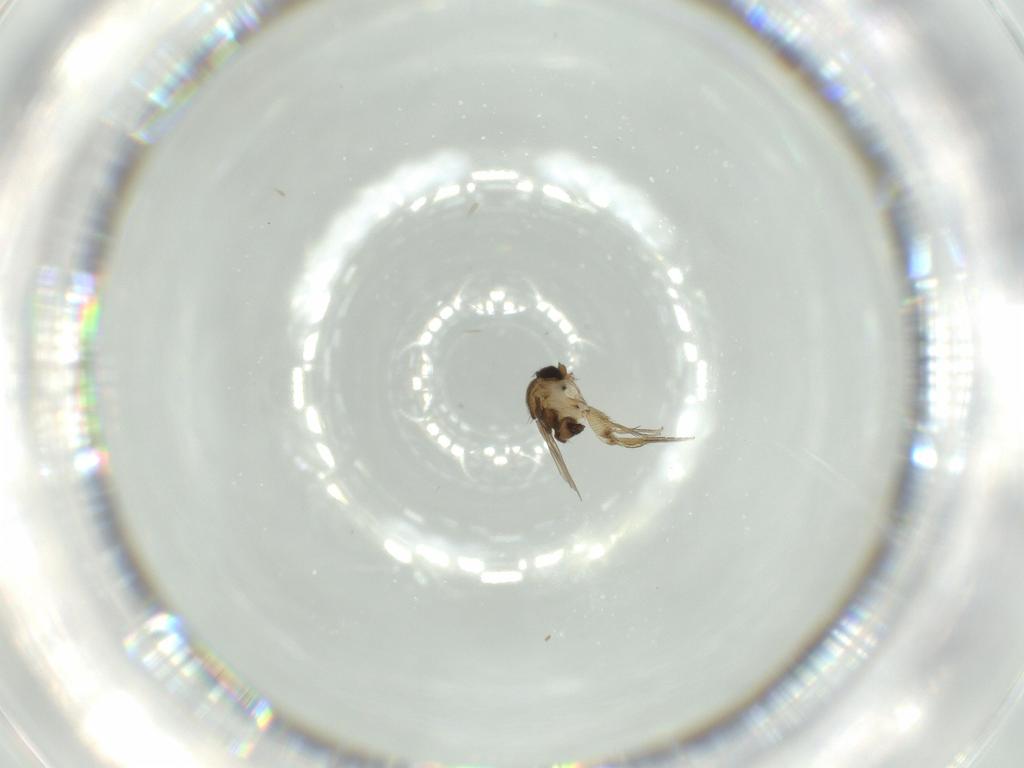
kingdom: Animalia
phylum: Arthropoda
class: Insecta
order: Diptera
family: Phoridae
